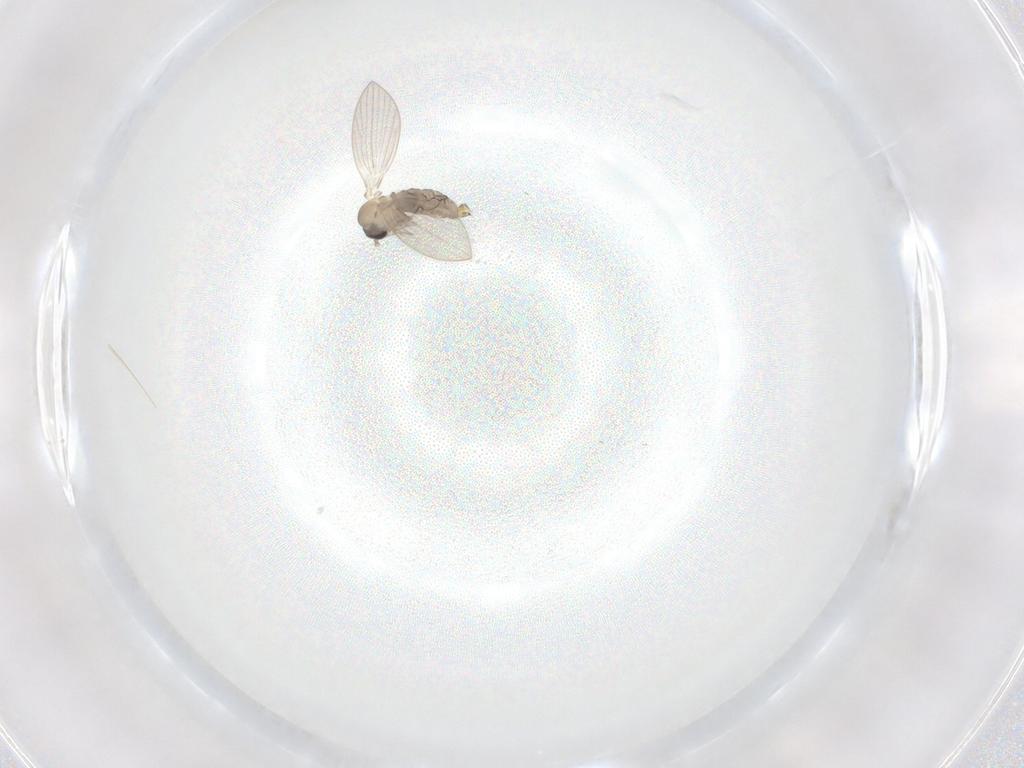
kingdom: Animalia
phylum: Arthropoda
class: Insecta
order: Diptera
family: Psychodidae
